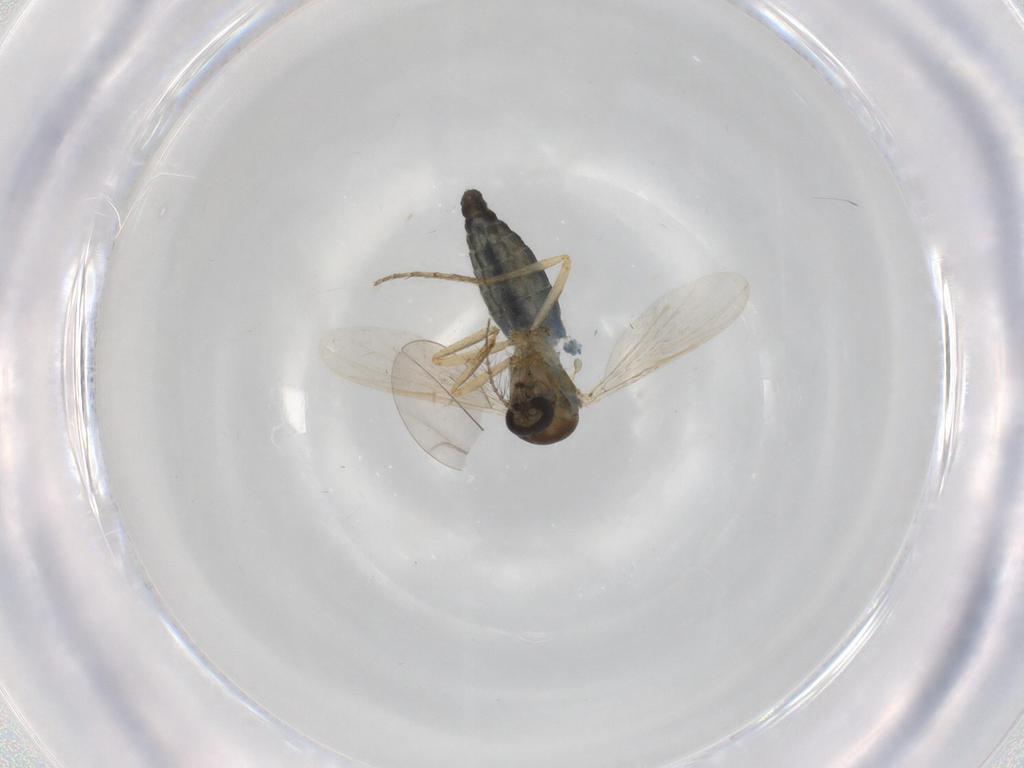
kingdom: Animalia
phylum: Arthropoda
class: Insecta
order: Diptera
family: Ceratopogonidae
